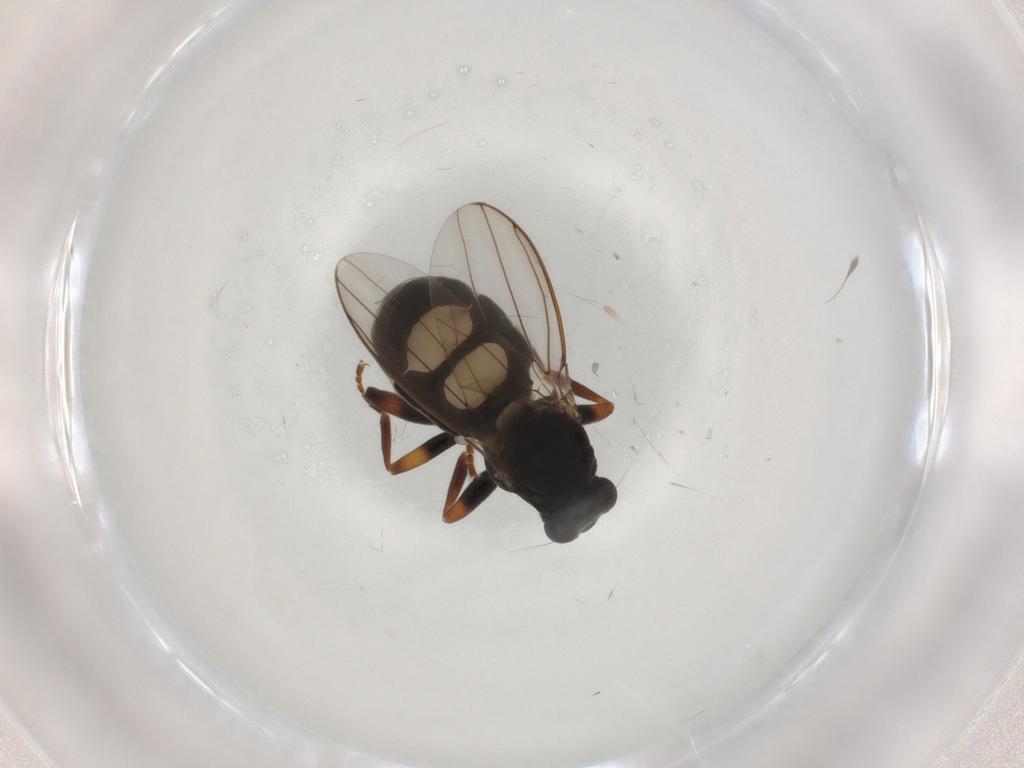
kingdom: Animalia
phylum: Arthropoda
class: Insecta
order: Diptera
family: Sphaeroceridae
